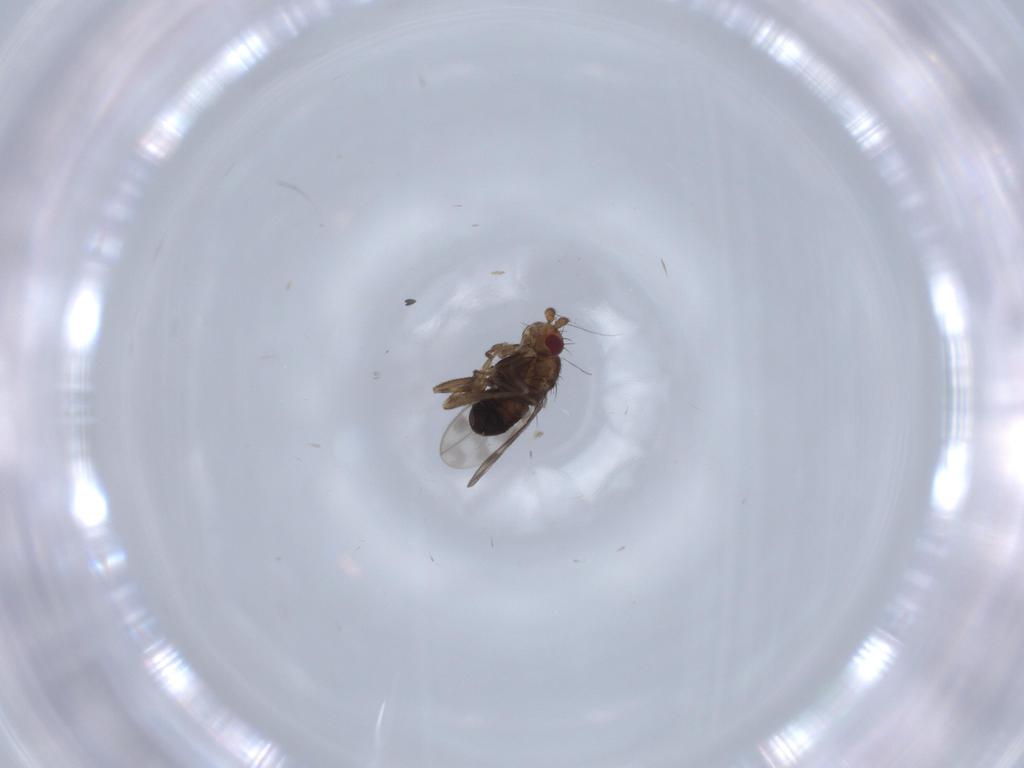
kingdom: Animalia
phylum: Arthropoda
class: Insecta
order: Diptera
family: Sphaeroceridae
